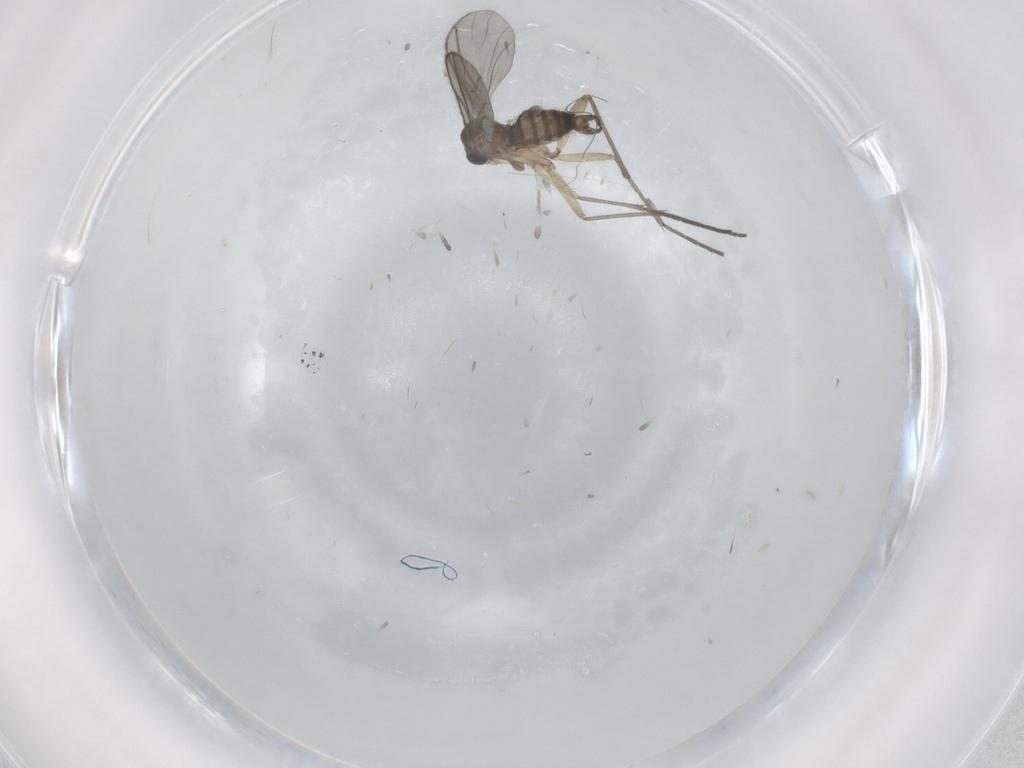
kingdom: Animalia
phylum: Arthropoda
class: Insecta
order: Diptera
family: Sciaridae
